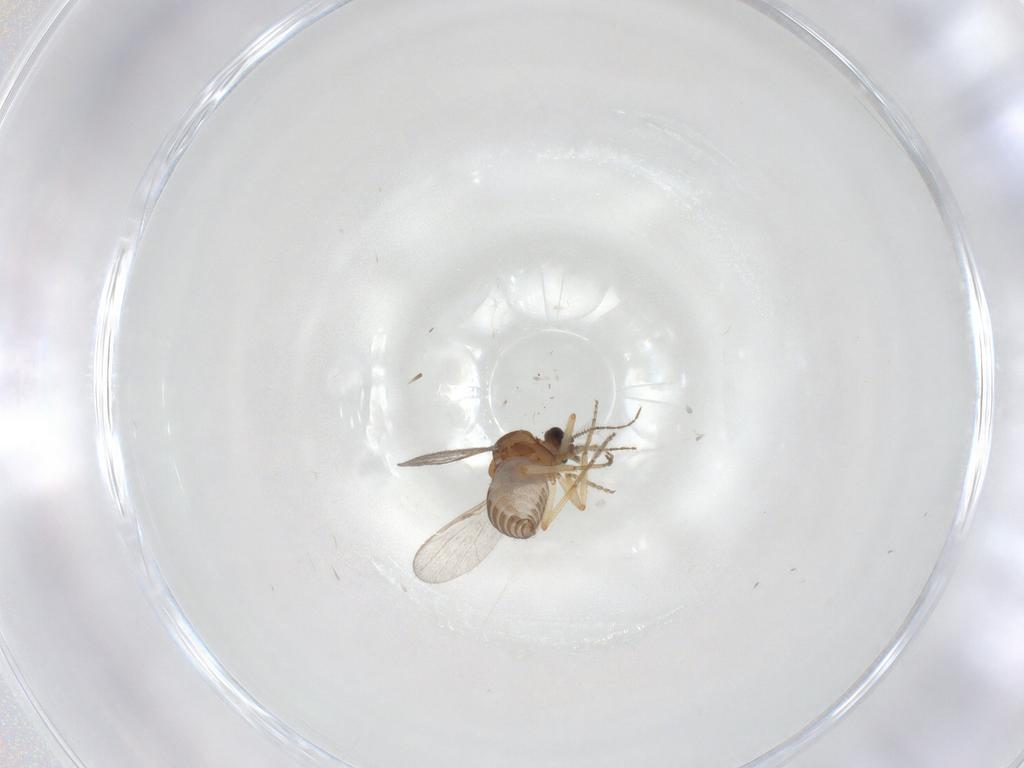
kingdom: Animalia
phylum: Arthropoda
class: Insecta
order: Diptera
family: Ceratopogonidae
